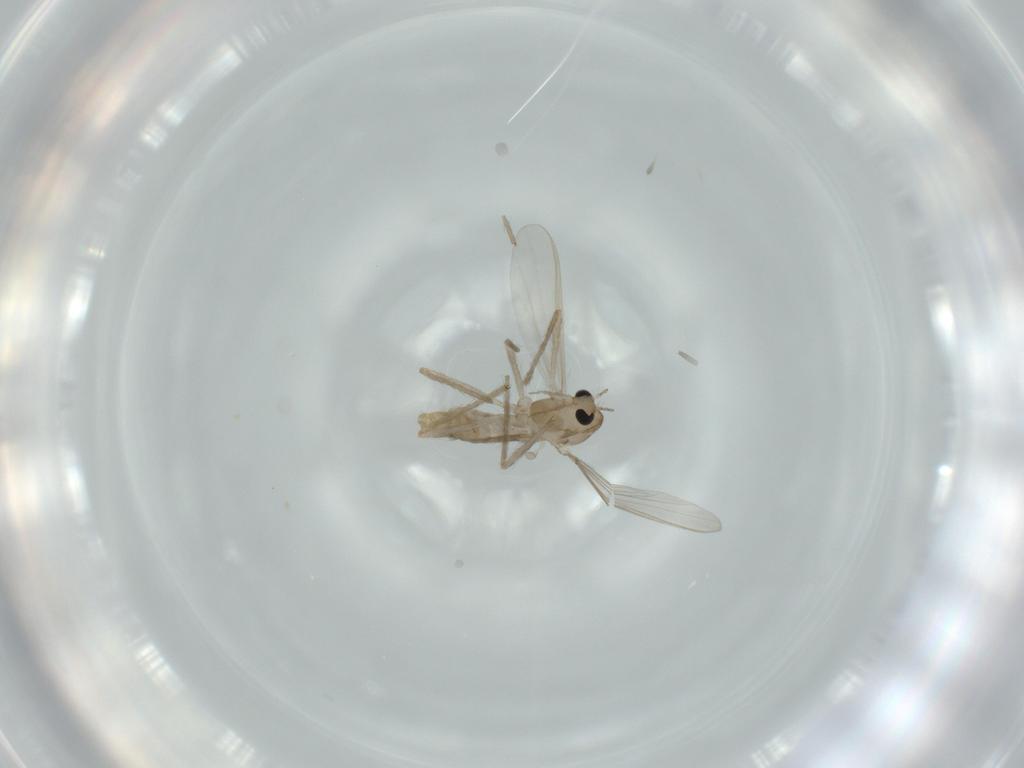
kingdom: Animalia
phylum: Arthropoda
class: Insecta
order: Diptera
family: Chironomidae
